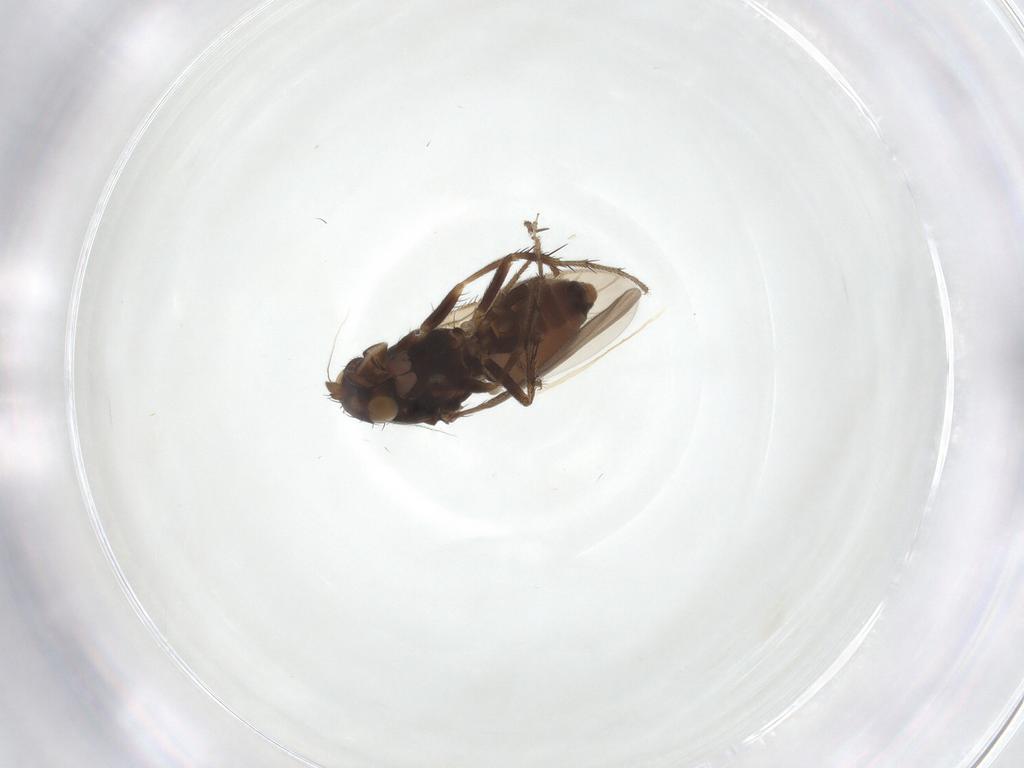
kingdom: Animalia
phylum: Arthropoda
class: Insecta
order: Diptera
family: Sphaeroceridae
